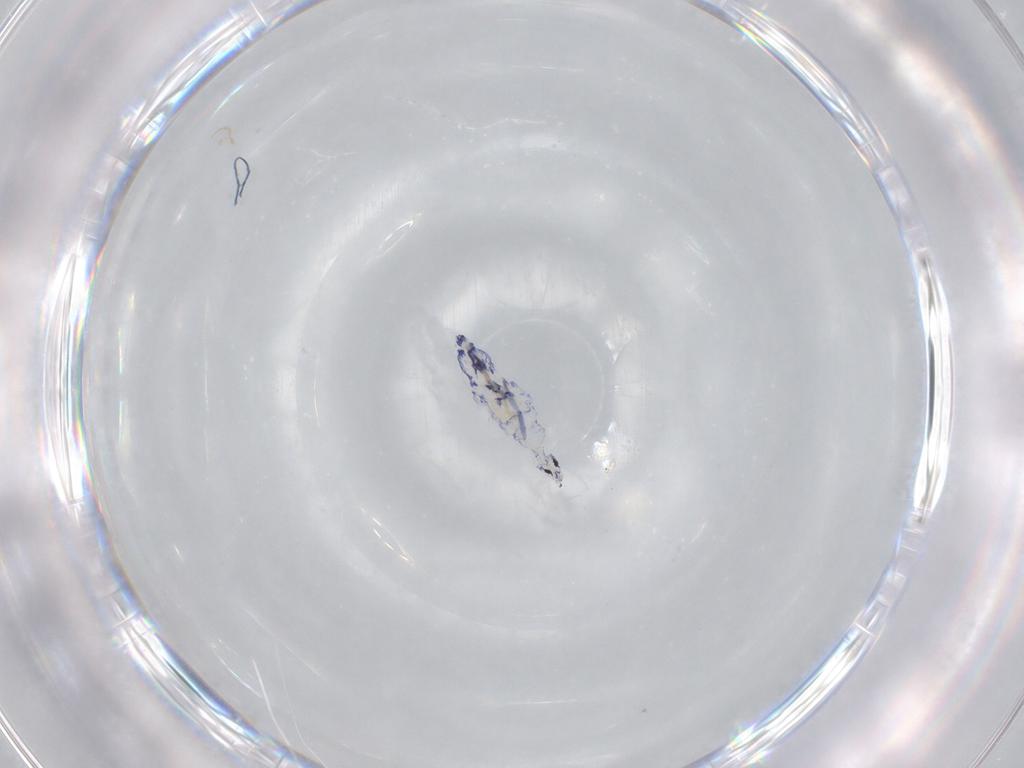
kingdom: Animalia
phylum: Arthropoda
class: Collembola
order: Entomobryomorpha
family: Entomobryidae
